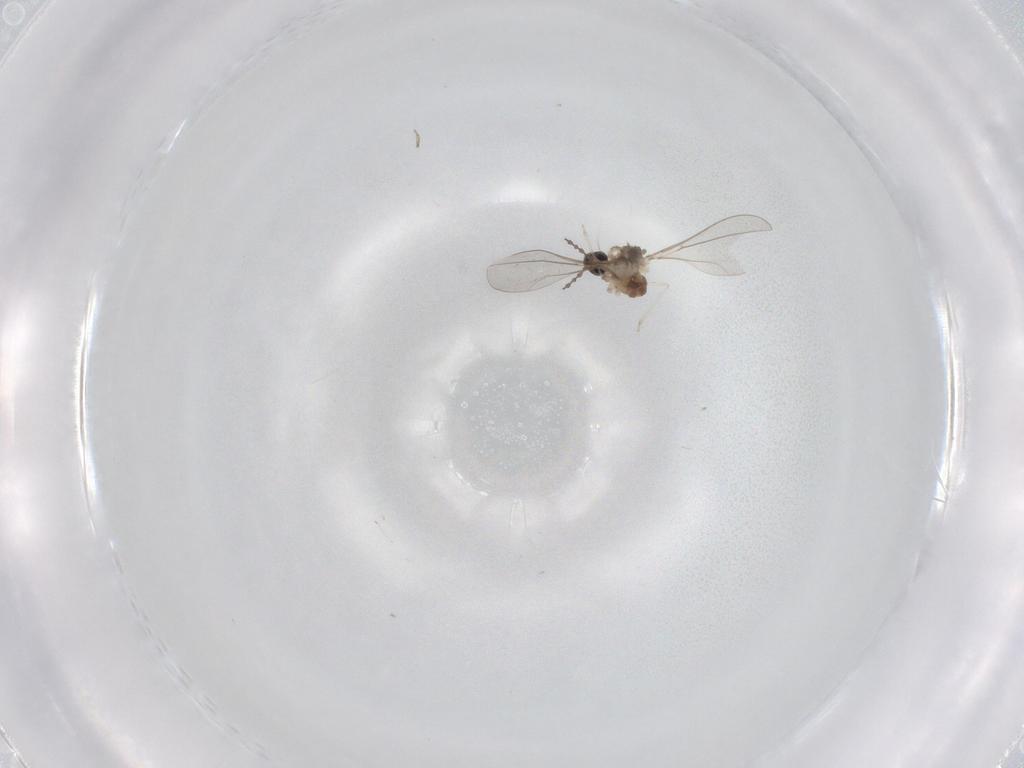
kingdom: Animalia
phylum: Arthropoda
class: Insecta
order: Diptera
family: Cecidomyiidae
